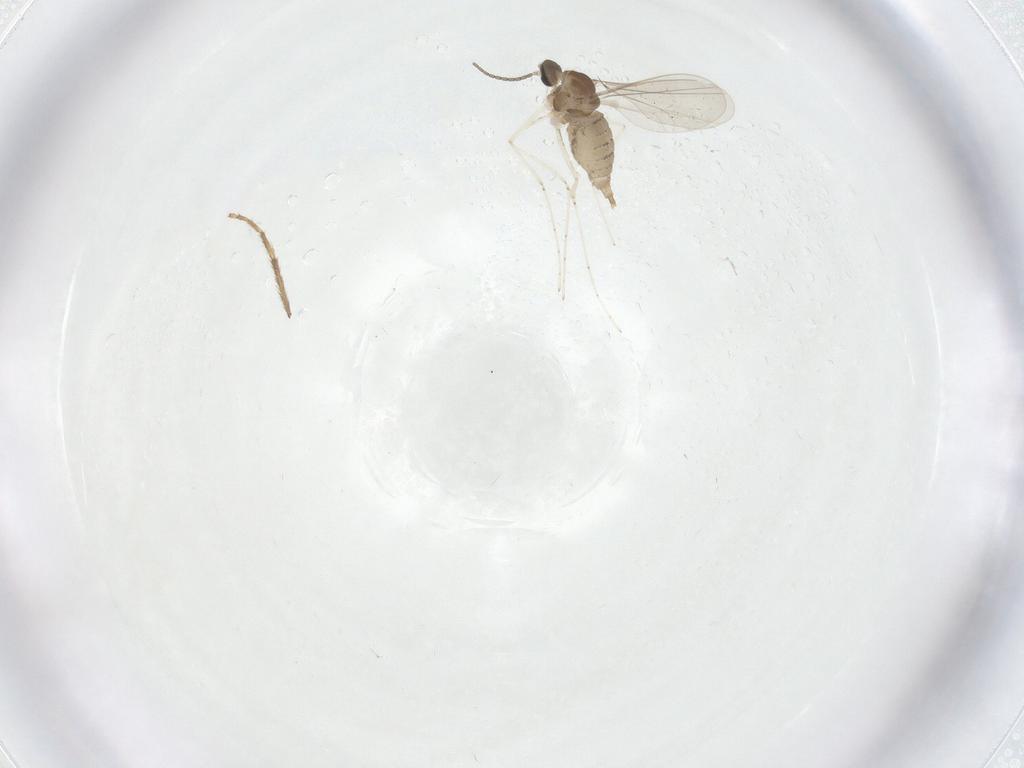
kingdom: Animalia
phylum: Arthropoda
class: Insecta
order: Diptera
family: Cecidomyiidae
